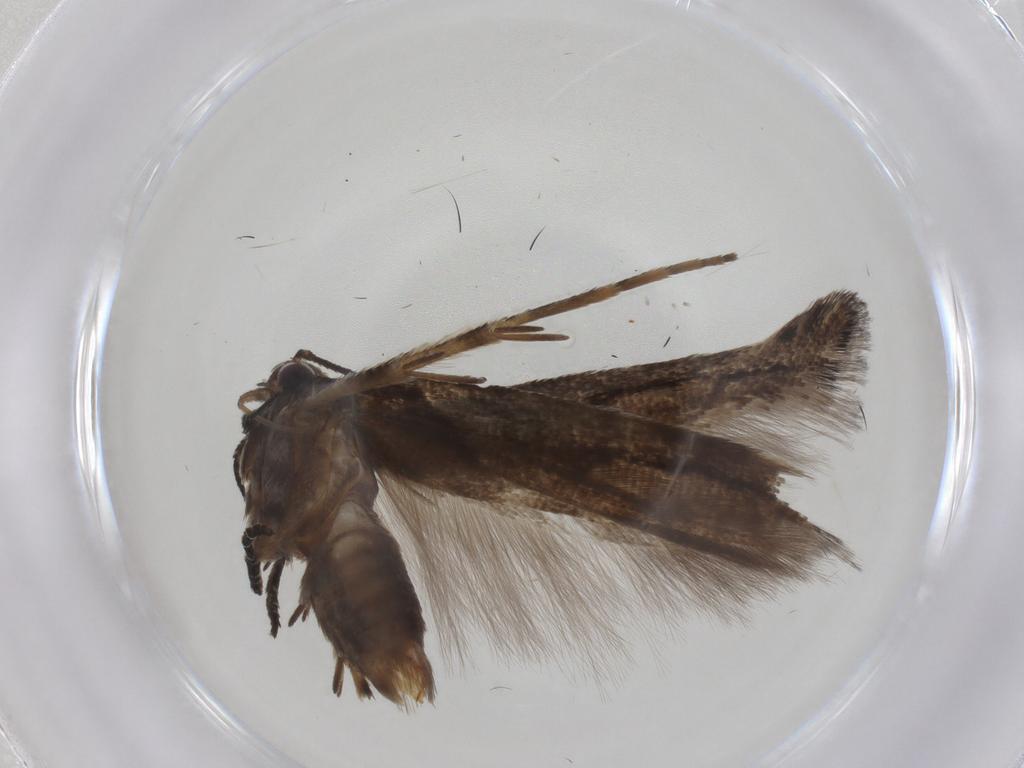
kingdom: Animalia
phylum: Arthropoda
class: Insecta
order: Lepidoptera
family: Gelechiidae
